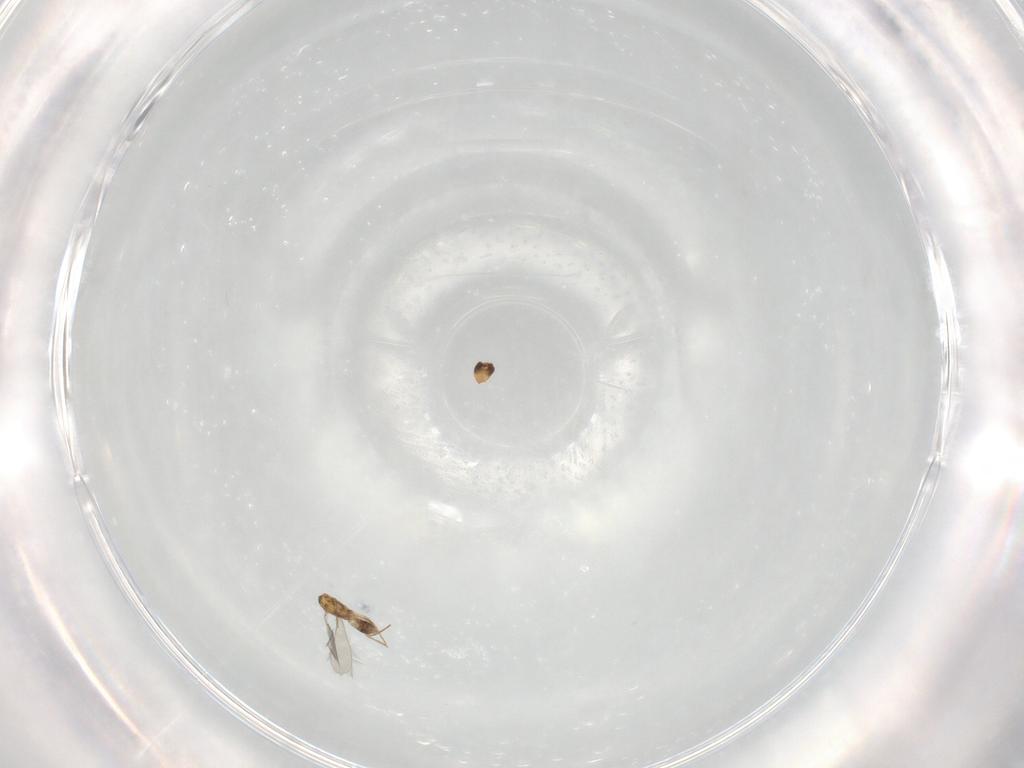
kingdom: Animalia
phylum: Arthropoda
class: Insecta
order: Hymenoptera
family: Mymaridae
